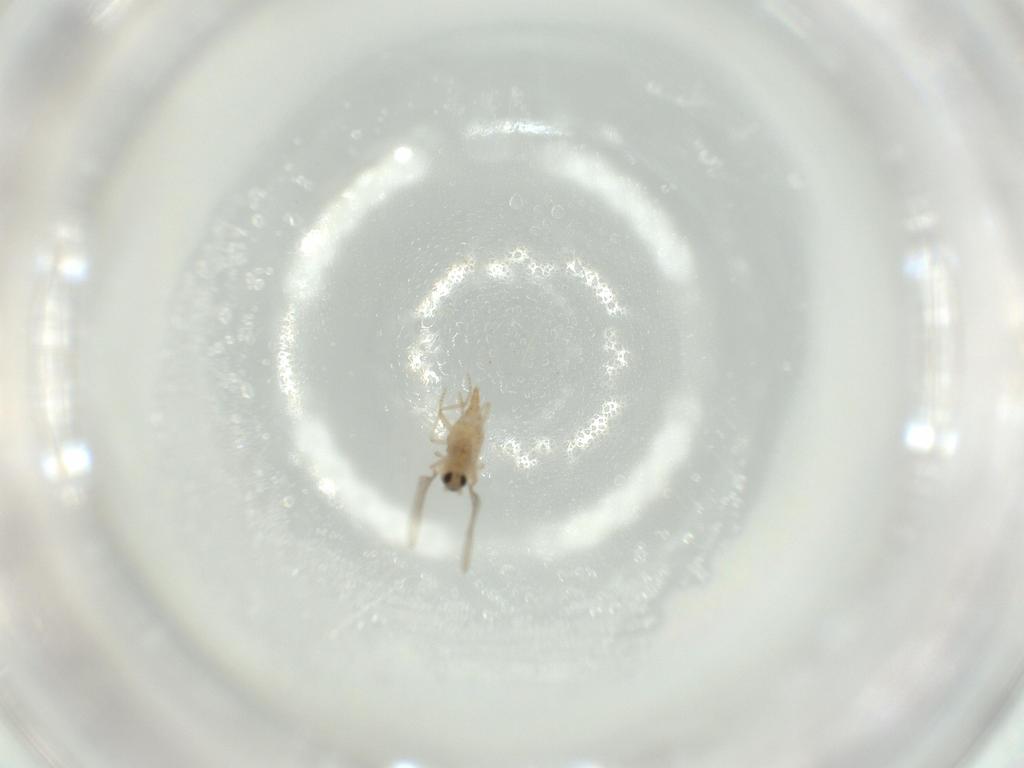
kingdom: Animalia
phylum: Arthropoda
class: Insecta
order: Diptera
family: Cecidomyiidae
